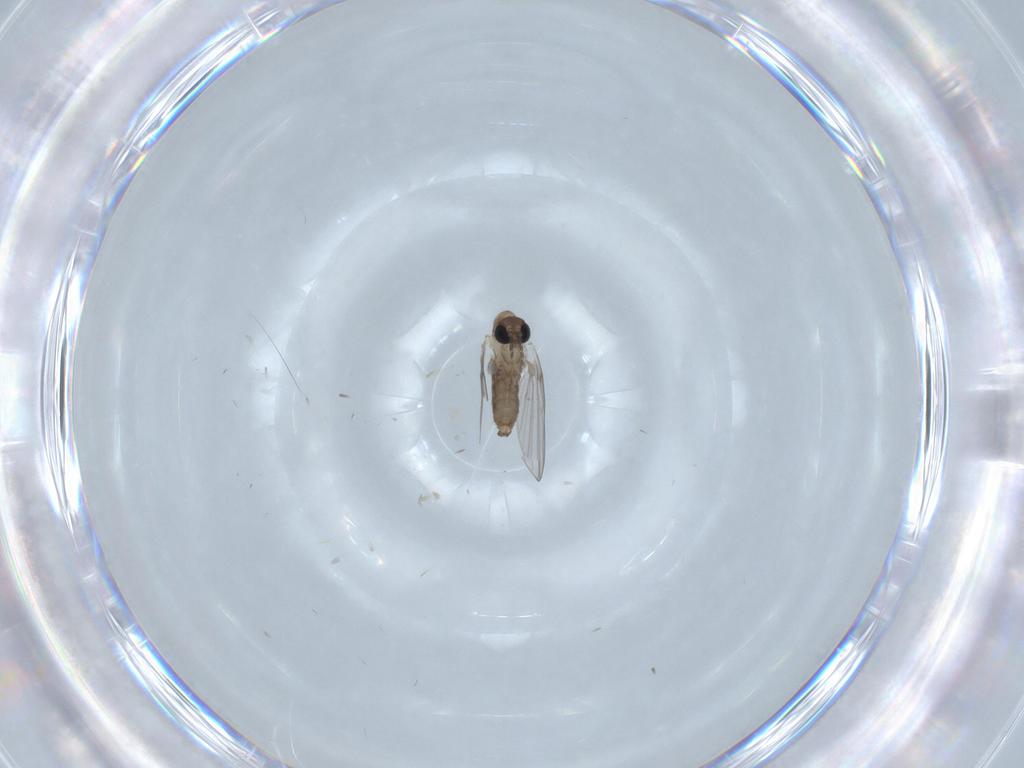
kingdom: Animalia
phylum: Arthropoda
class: Insecta
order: Diptera
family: Psychodidae
